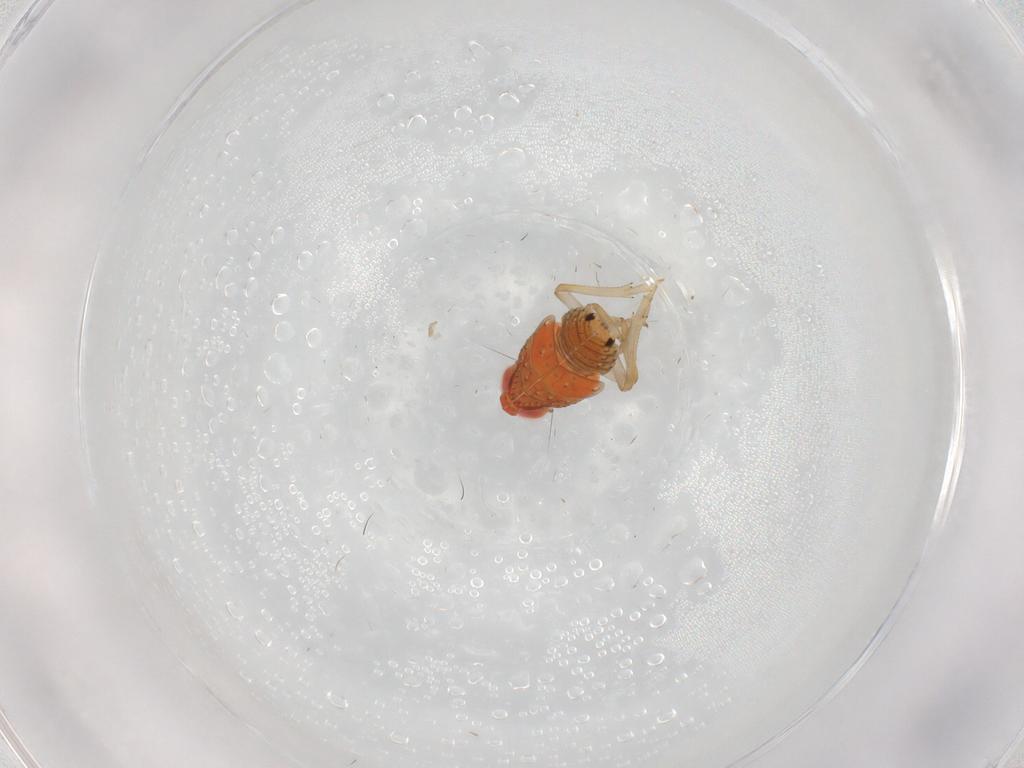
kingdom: Animalia
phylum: Arthropoda
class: Insecta
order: Hemiptera
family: Issidae
